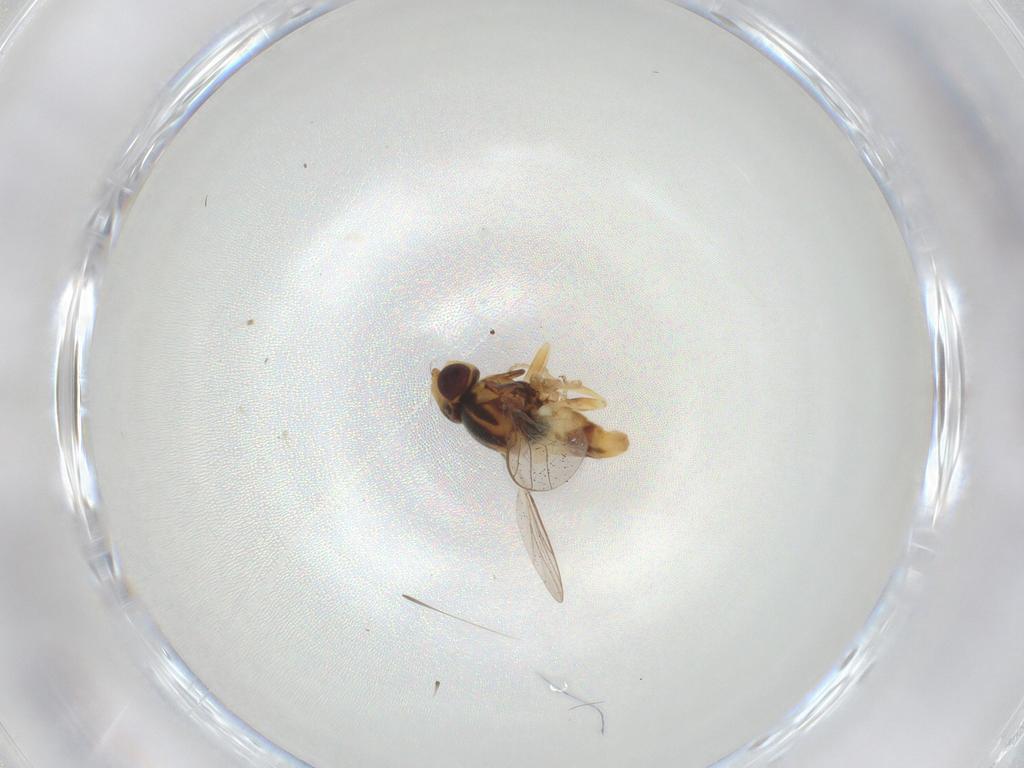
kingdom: Animalia
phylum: Arthropoda
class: Insecta
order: Diptera
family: Chloropidae
